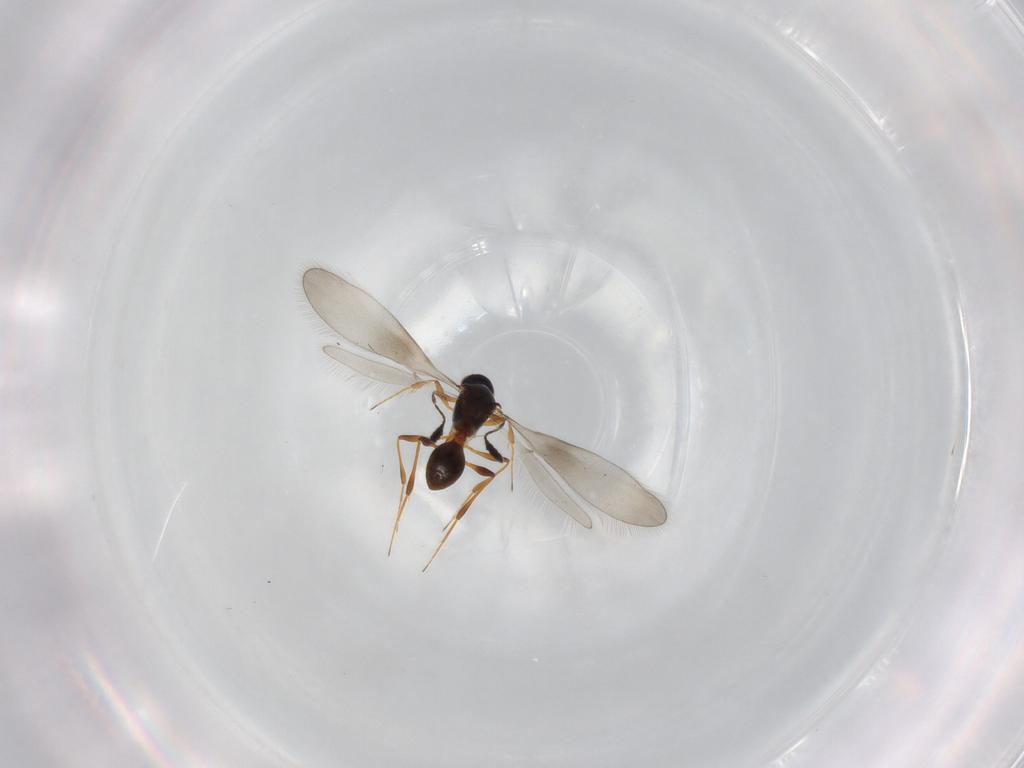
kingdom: Animalia
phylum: Arthropoda
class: Insecta
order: Hymenoptera
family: Platygastridae
